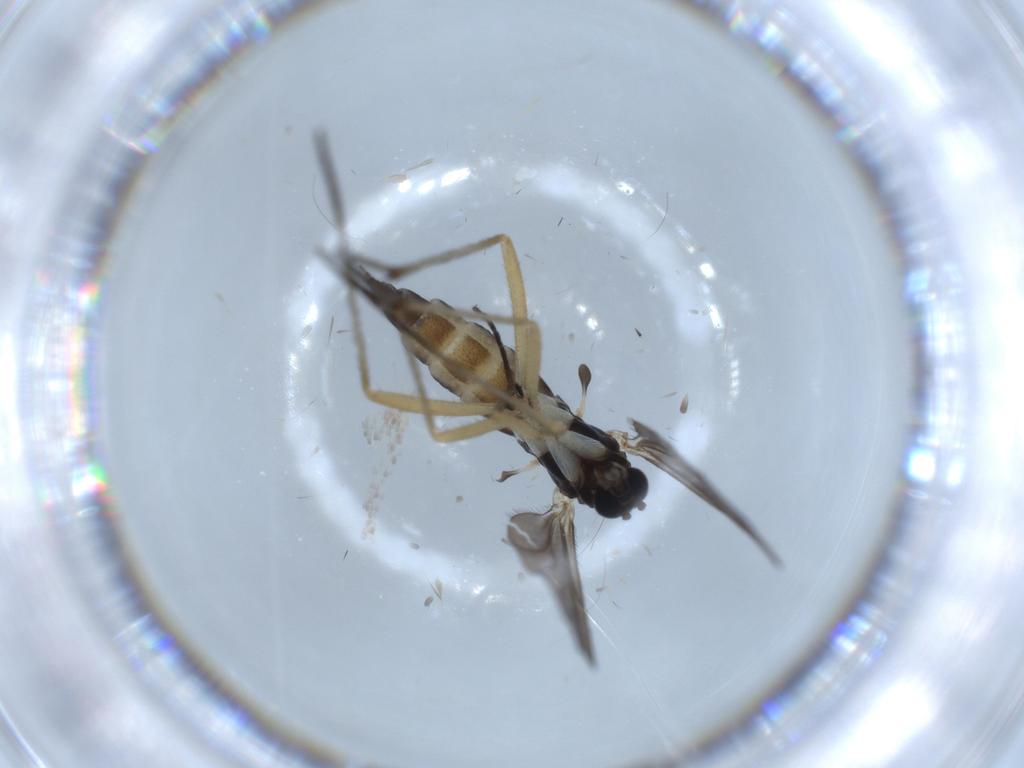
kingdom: Animalia
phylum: Arthropoda
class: Insecta
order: Diptera
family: Sciaridae
